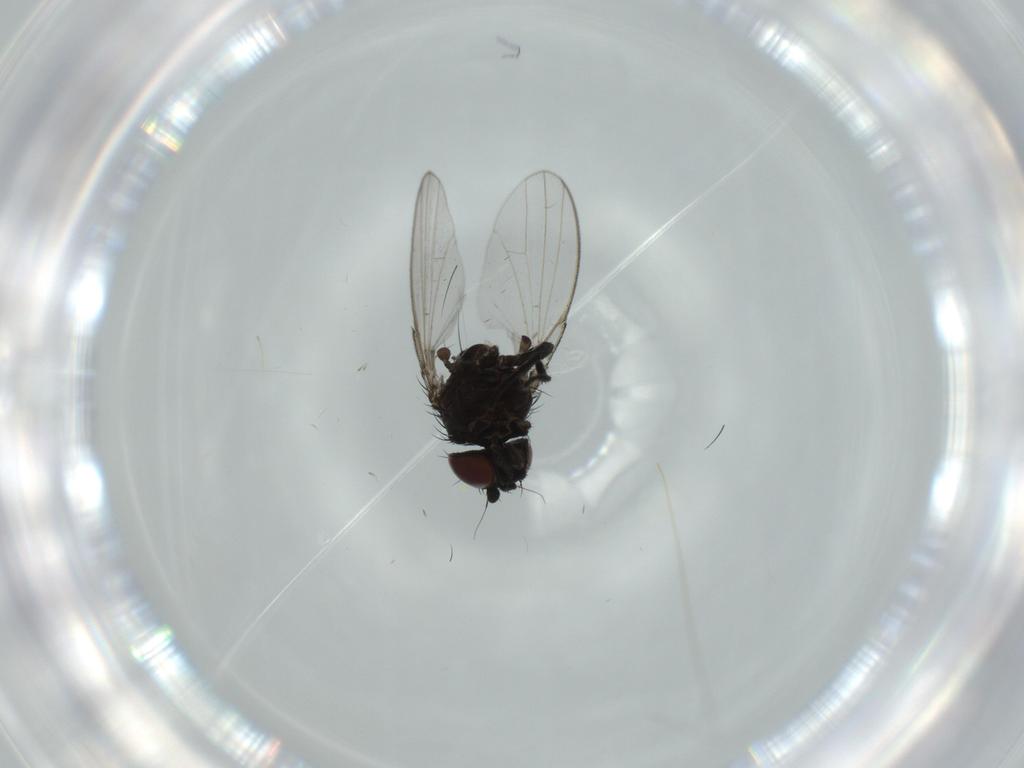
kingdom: Animalia
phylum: Arthropoda
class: Insecta
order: Diptera
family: Milichiidae
